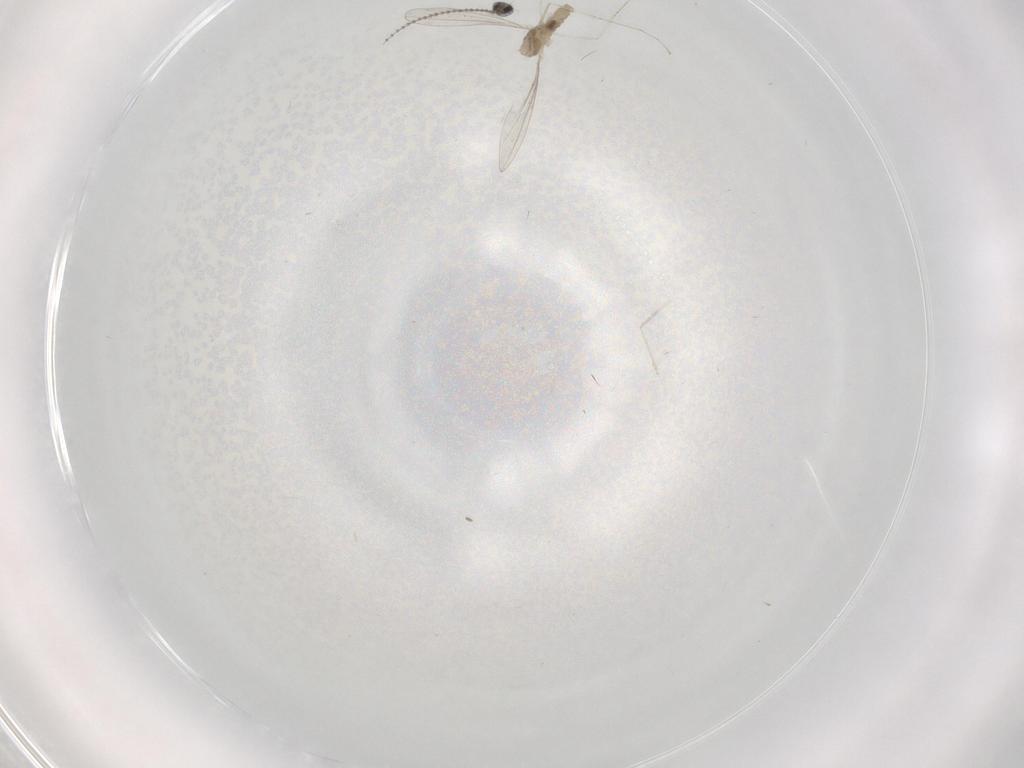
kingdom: Animalia
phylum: Arthropoda
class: Insecta
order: Diptera
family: Cecidomyiidae
